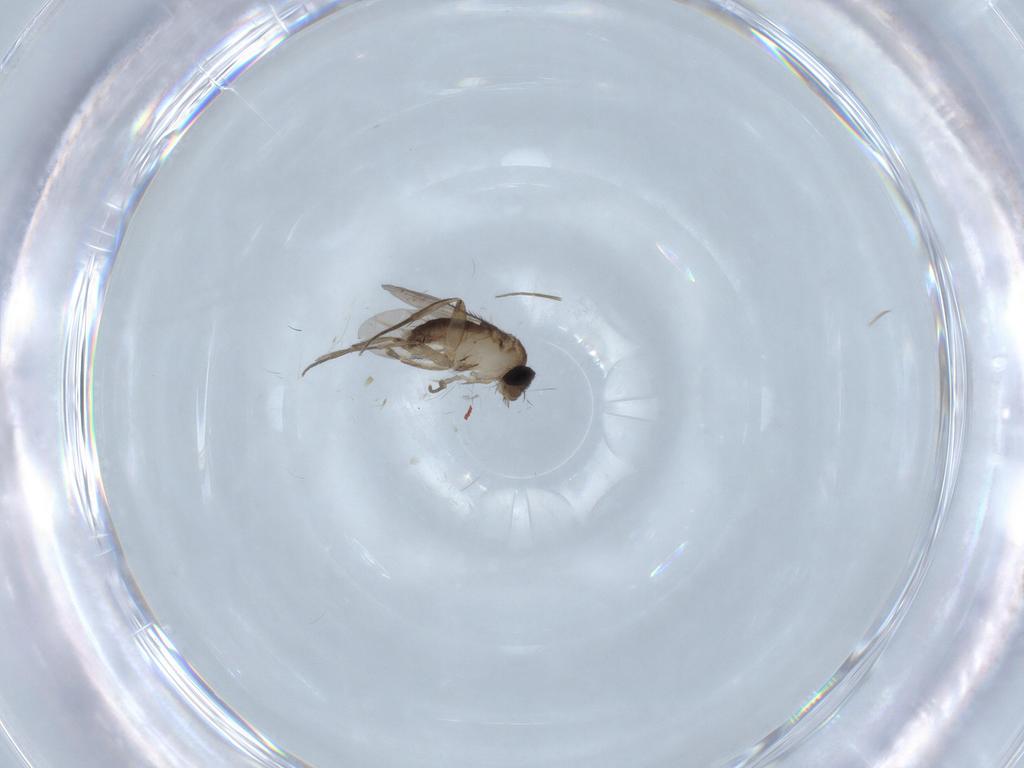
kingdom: Animalia
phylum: Arthropoda
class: Insecta
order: Diptera
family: Phoridae
